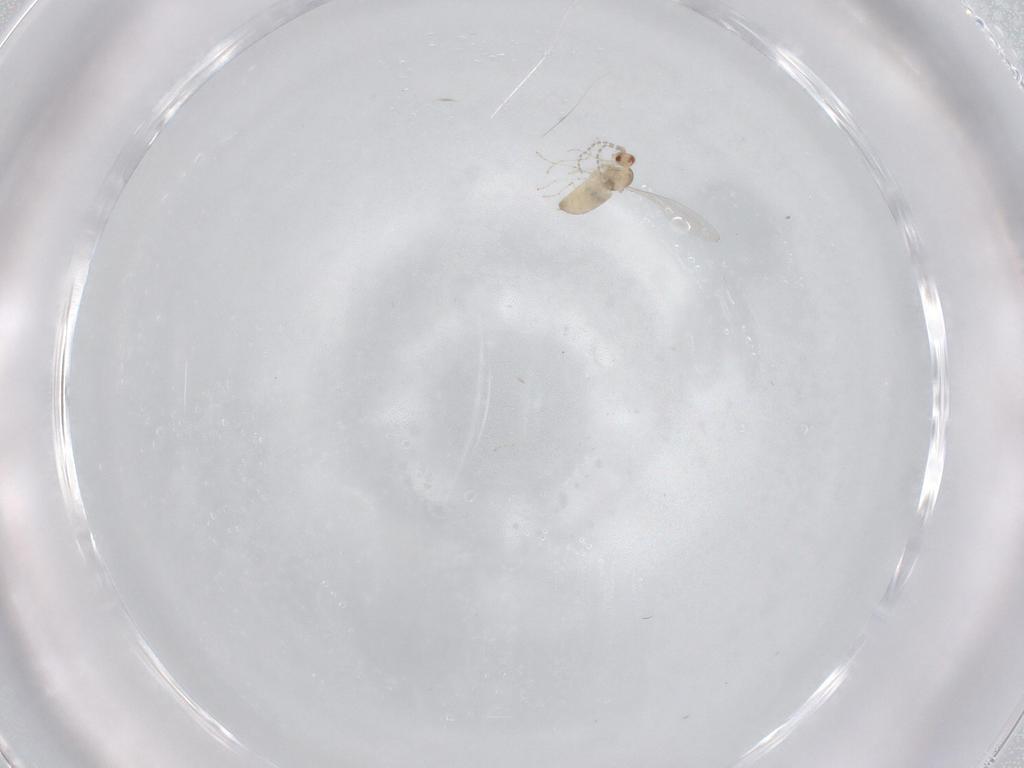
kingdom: Animalia
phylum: Arthropoda
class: Insecta
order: Diptera
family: Cecidomyiidae
